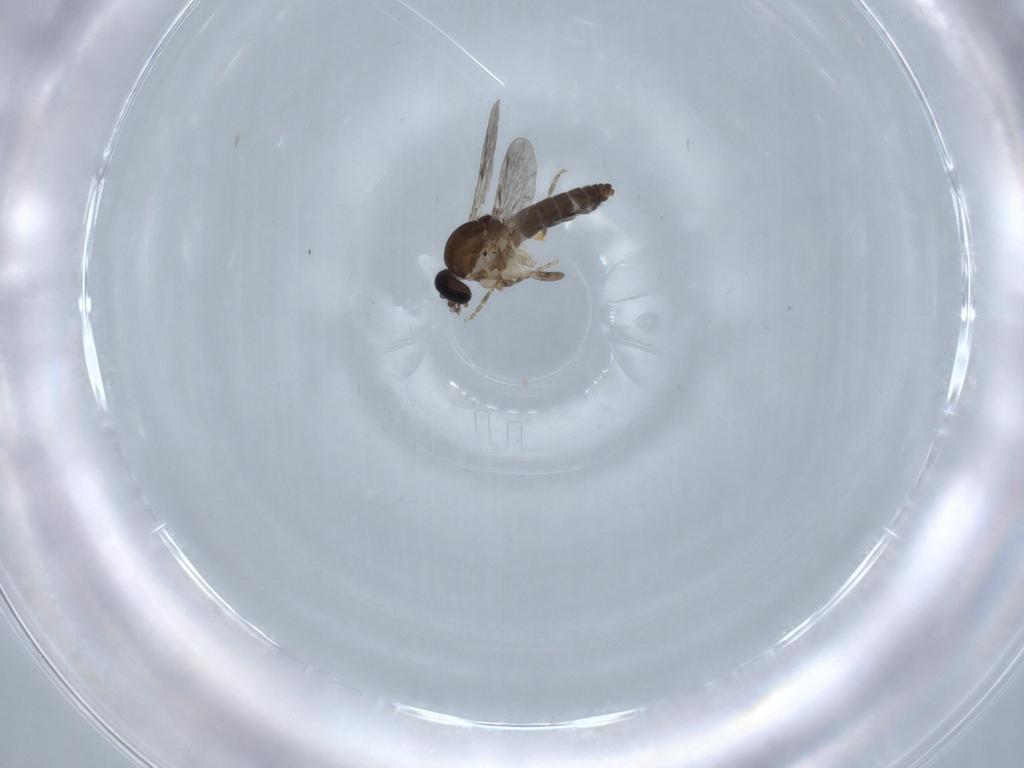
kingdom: Animalia
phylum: Arthropoda
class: Insecta
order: Diptera
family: Ceratopogonidae
